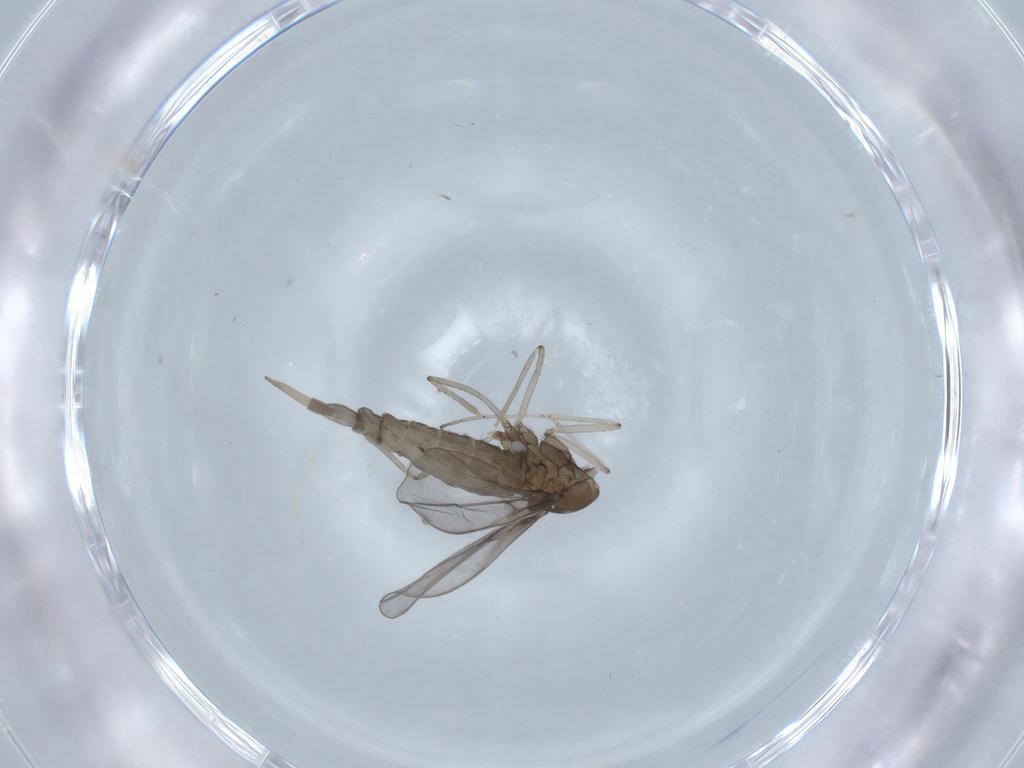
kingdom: Animalia
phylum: Arthropoda
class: Insecta
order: Diptera
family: Cecidomyiidae
